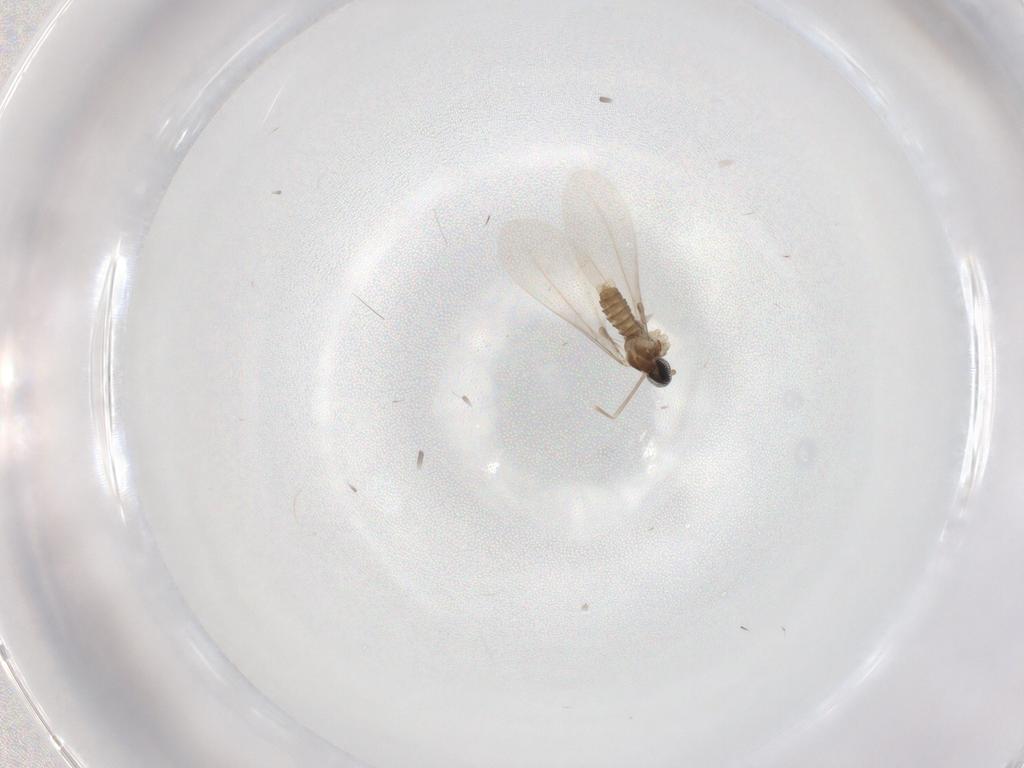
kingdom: Animalia
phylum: Arthropoda
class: Insecta
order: Diptera
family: Cecidomyiidae
